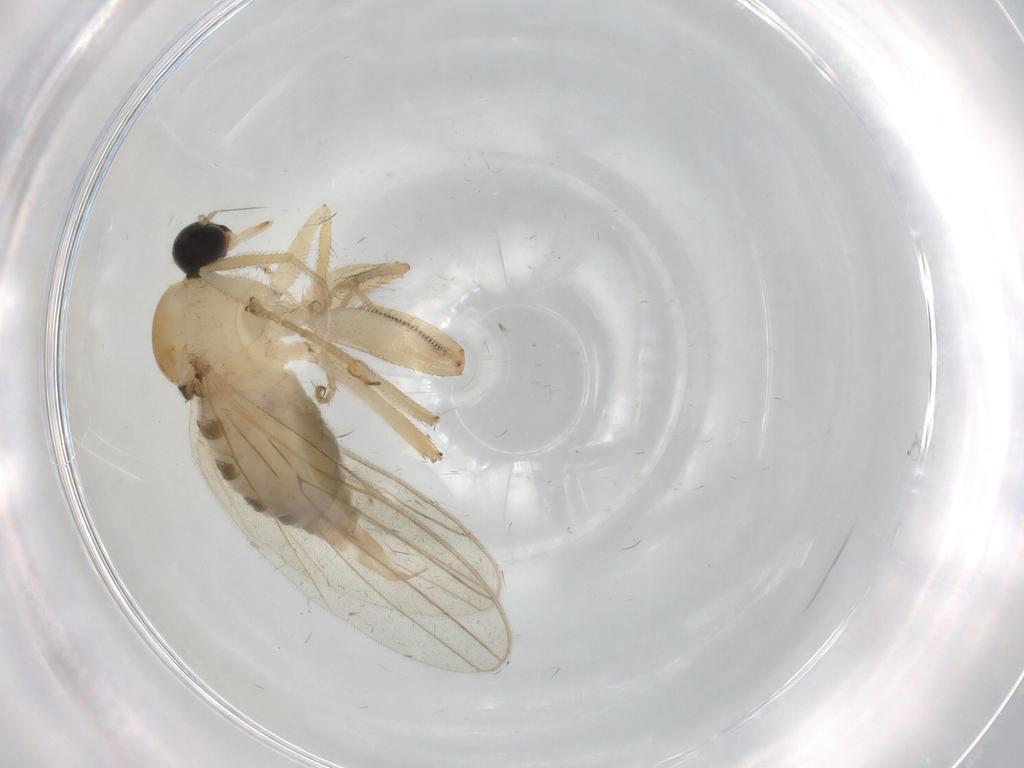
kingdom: Animalia
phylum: Arthropoda
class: Insecta
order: Diptera
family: Hybotidae
